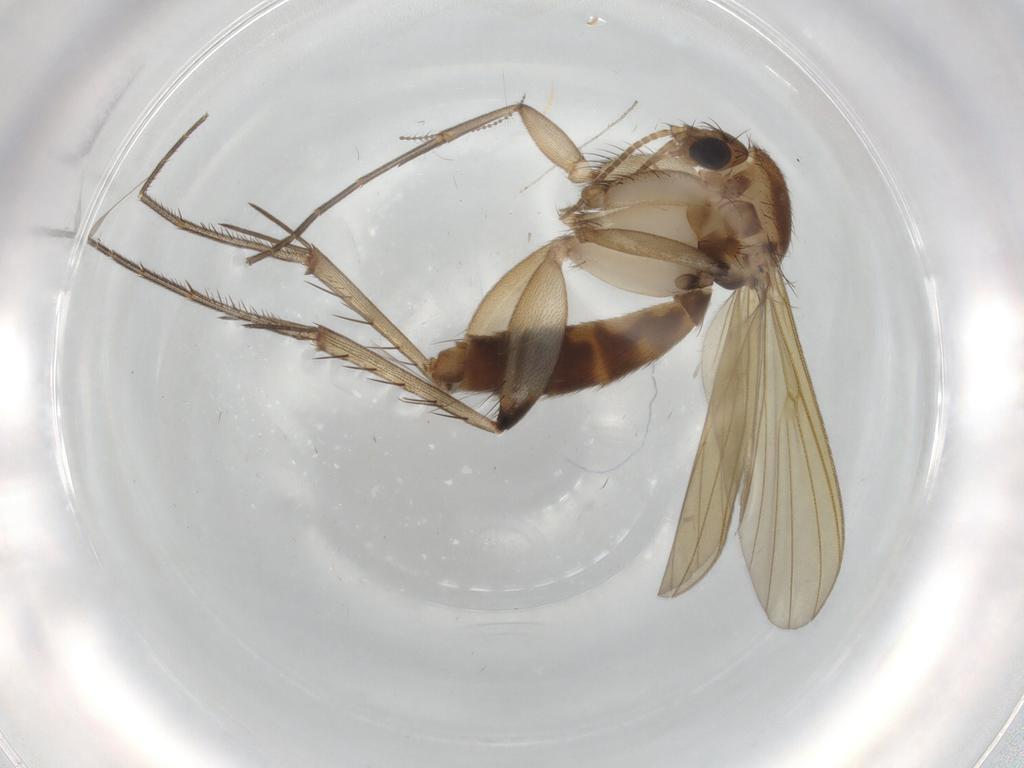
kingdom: Animalia
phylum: Arthropoda
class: Insecta
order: Diptera
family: Mycetophilidae
